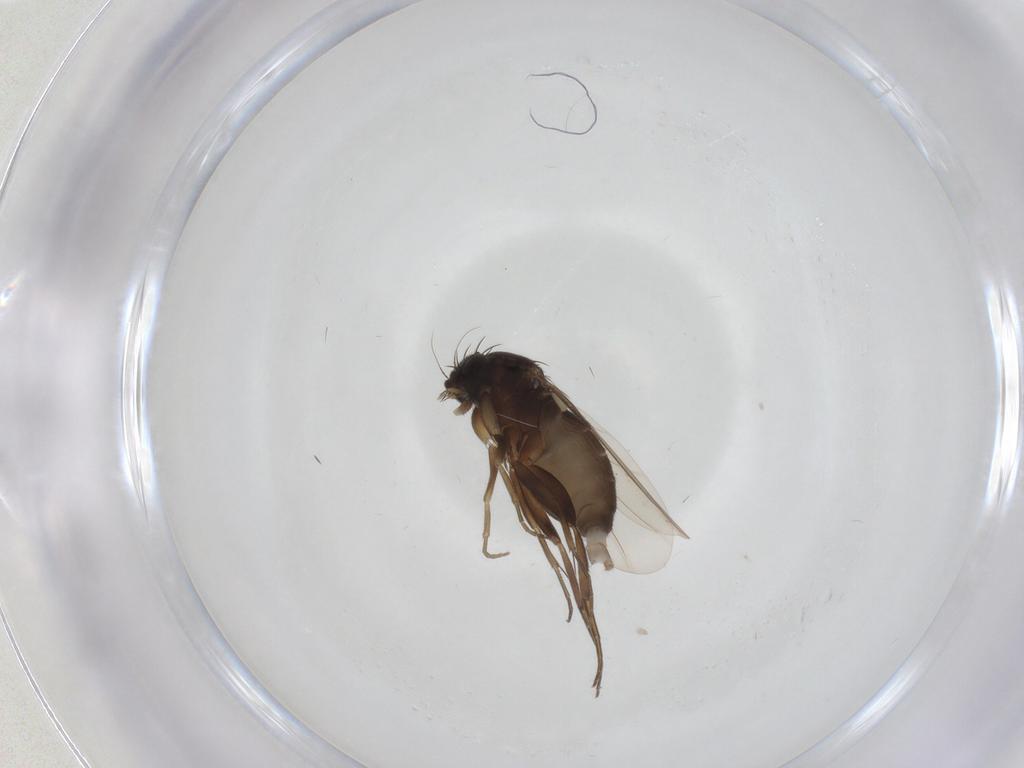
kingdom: Animalia
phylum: Arthropoda
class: Insecta
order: Diptera
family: Phoridae
